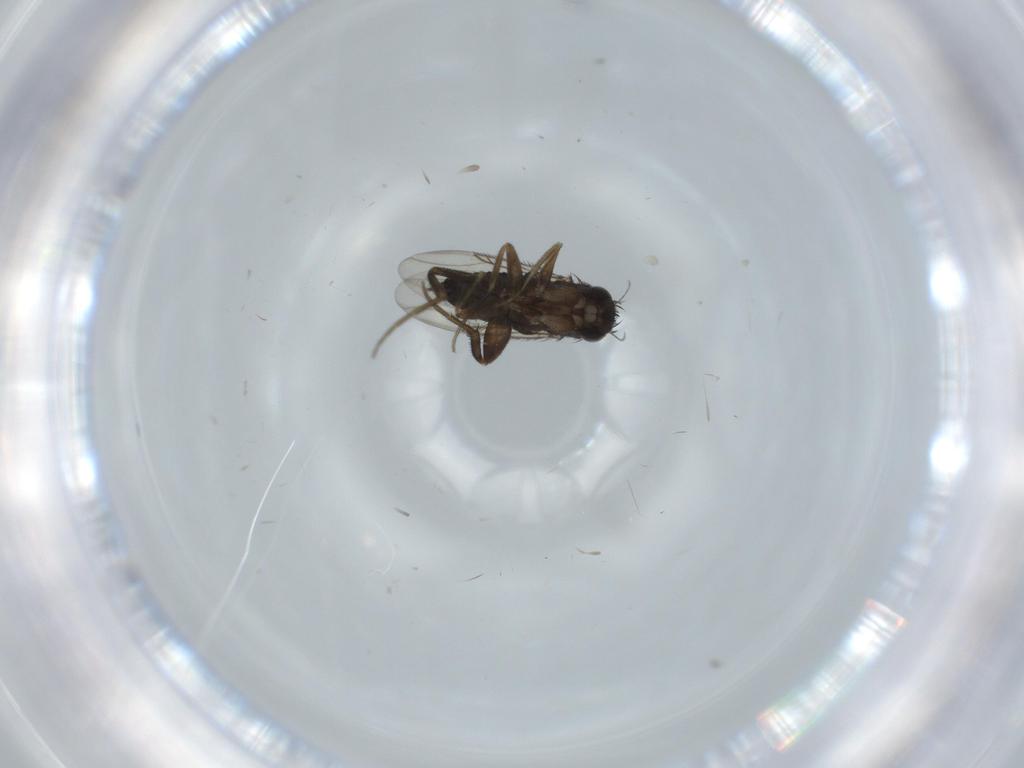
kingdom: Animalia
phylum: Arthropoda
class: Insecta
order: Diptera
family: Phoridae
